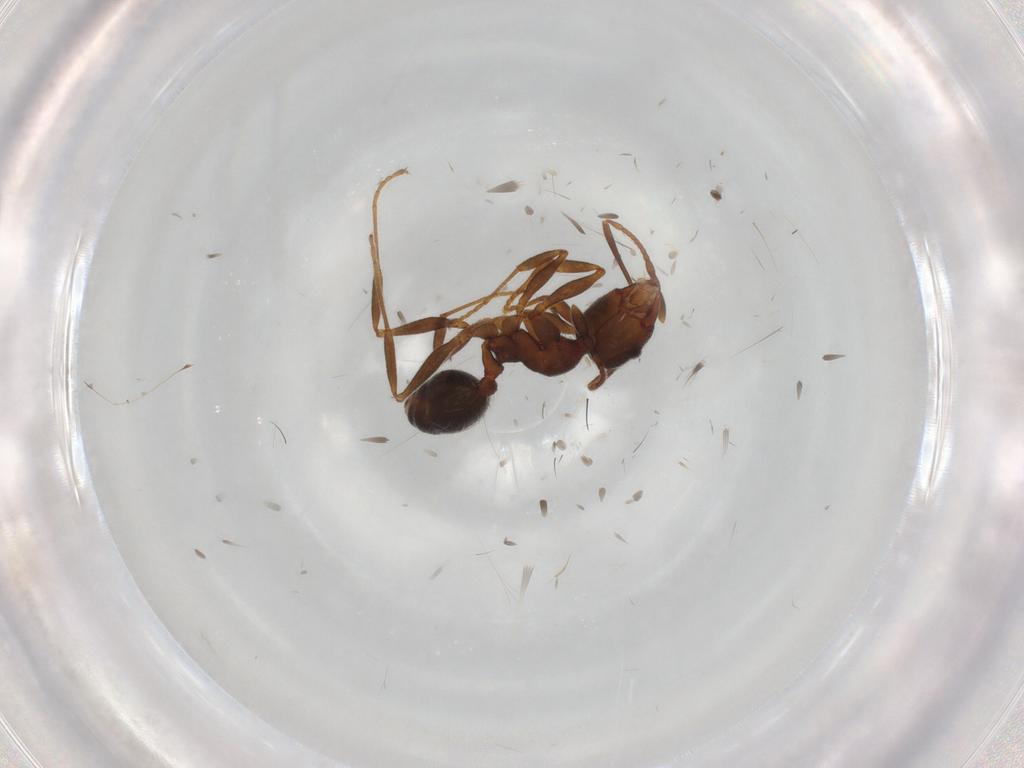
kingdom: Animalia
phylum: Arthropoda
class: Insecta
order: Hymenoptera
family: Formicidae
